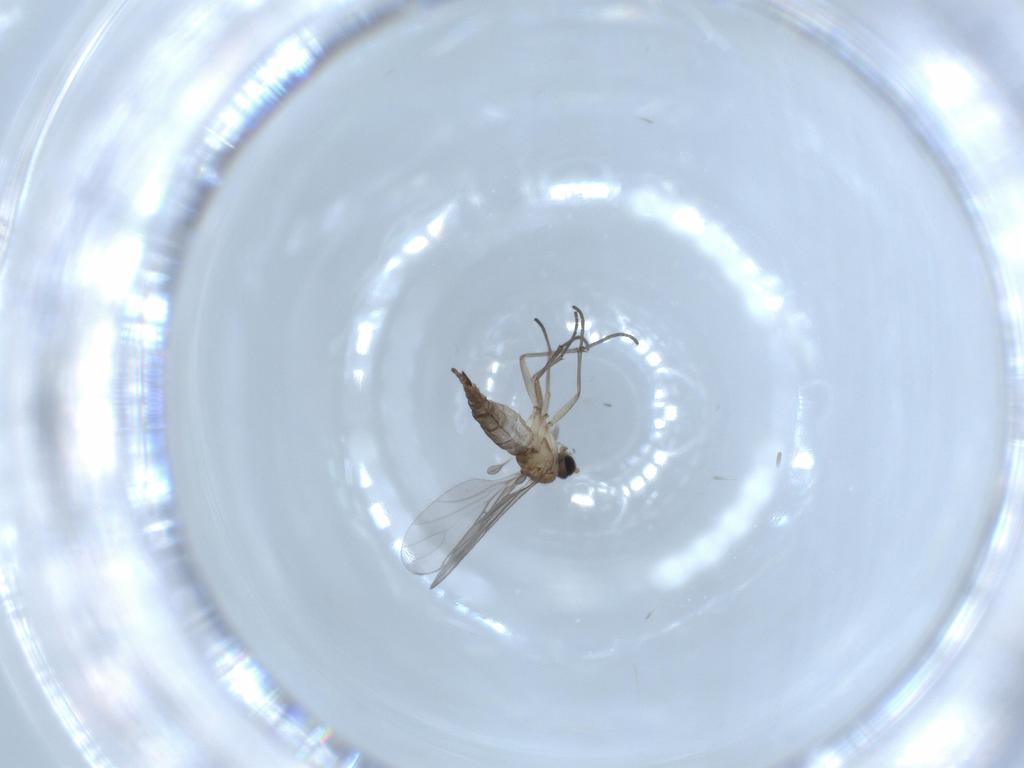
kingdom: Animalia
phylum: Arthropoda
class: Insecta
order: Diptera
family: Sciaridae
